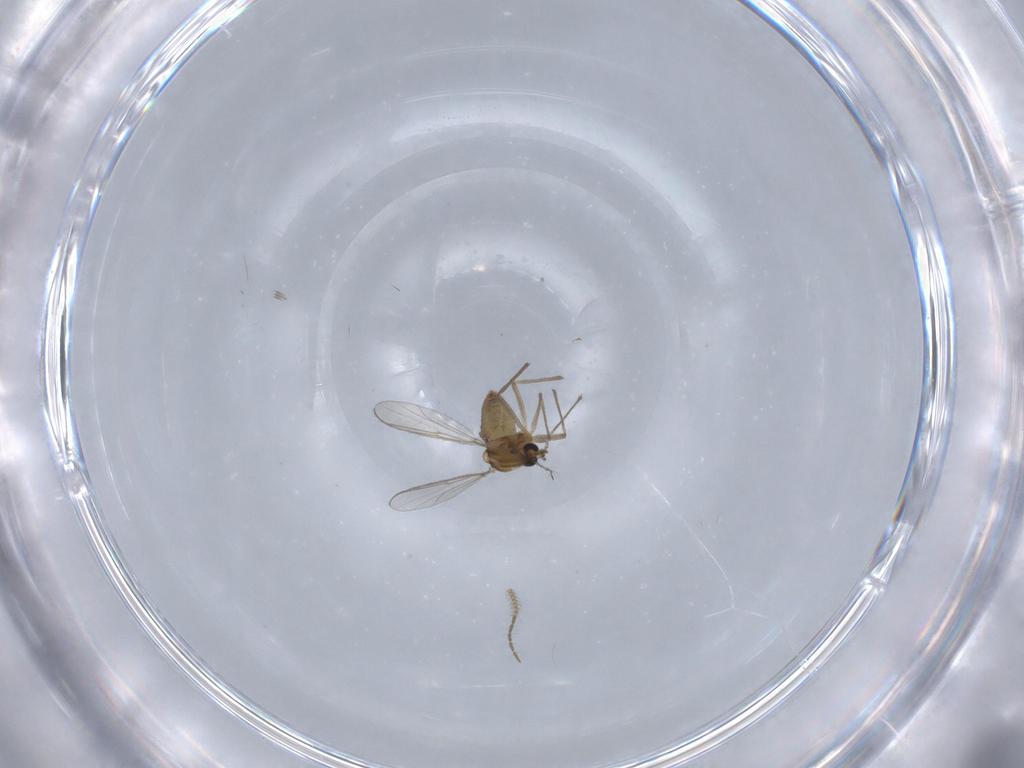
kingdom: Animalia
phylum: Arthropoda
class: Insecta
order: Diptera
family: Chironomidae
